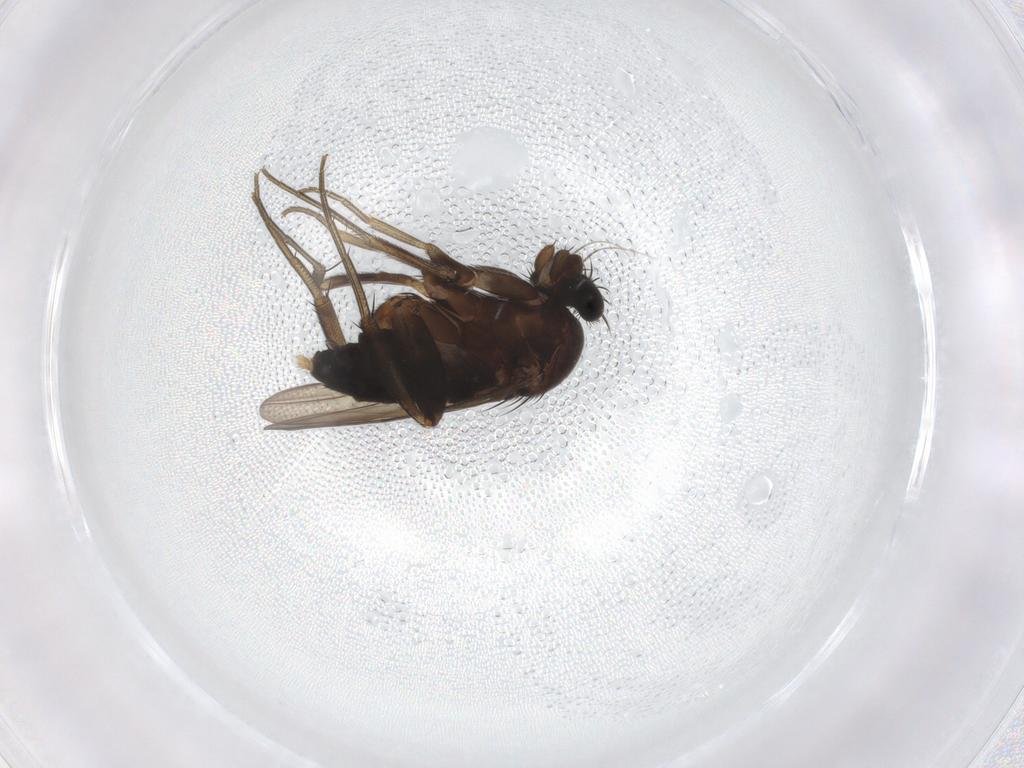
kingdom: Animalia
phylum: Arthropoda
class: Insecta
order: Diptera
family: Phoridae
